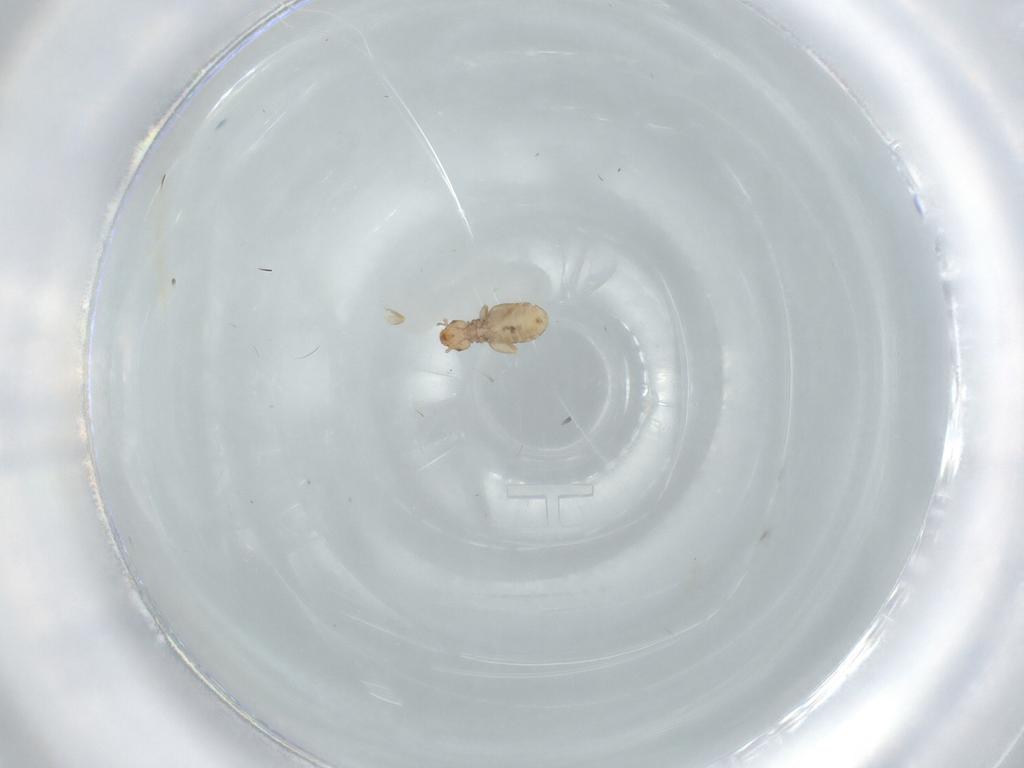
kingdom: Animalia
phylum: Arthropoda
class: Insecta
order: Psocodea
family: Liposcelididae
